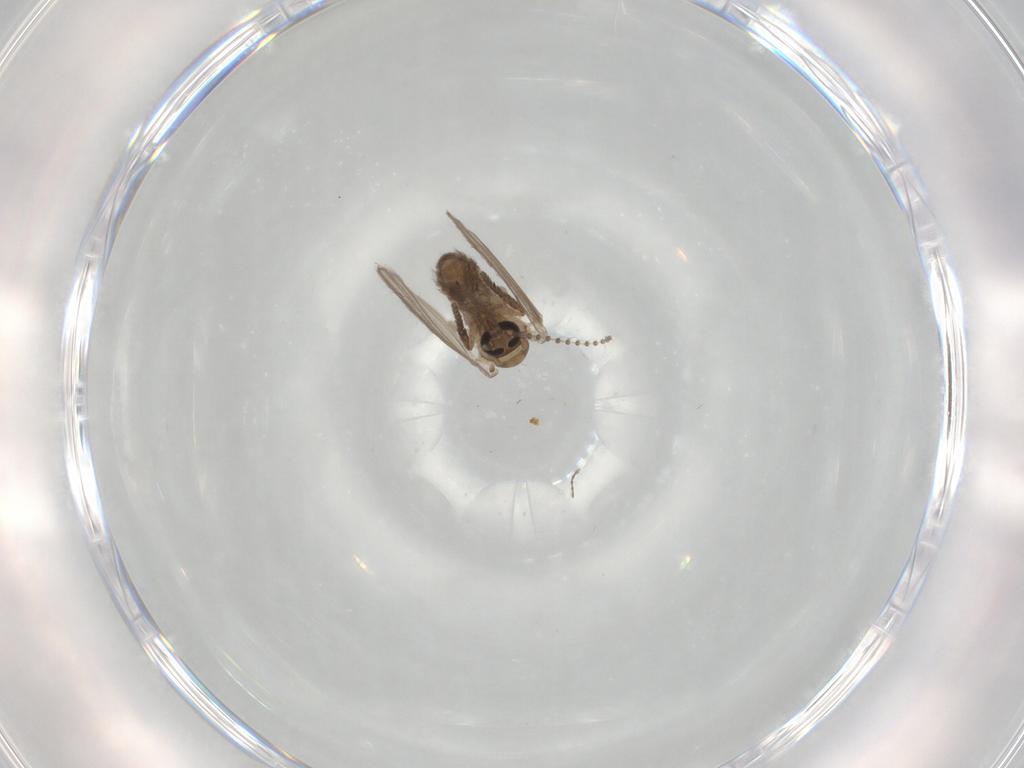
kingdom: Animalia
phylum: Arthropoda
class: Insecta
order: Diptera
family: Psychodidae
